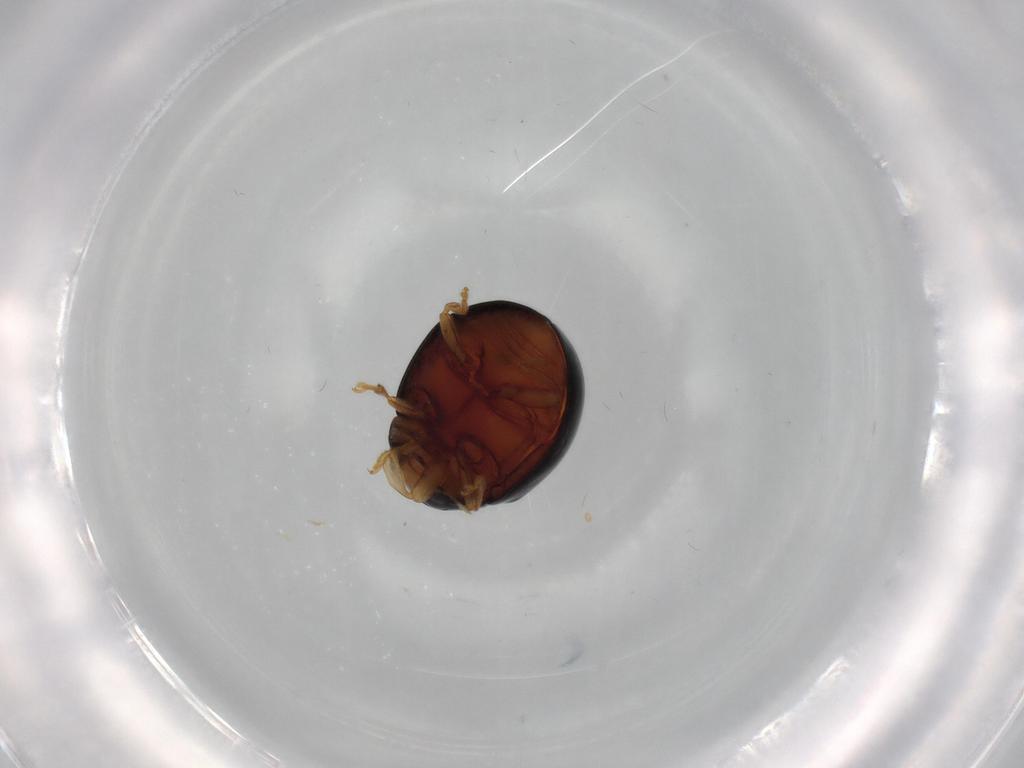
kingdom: Animalia
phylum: Arthropoda
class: Insecta
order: Coleoptera
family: Coccinellidae
